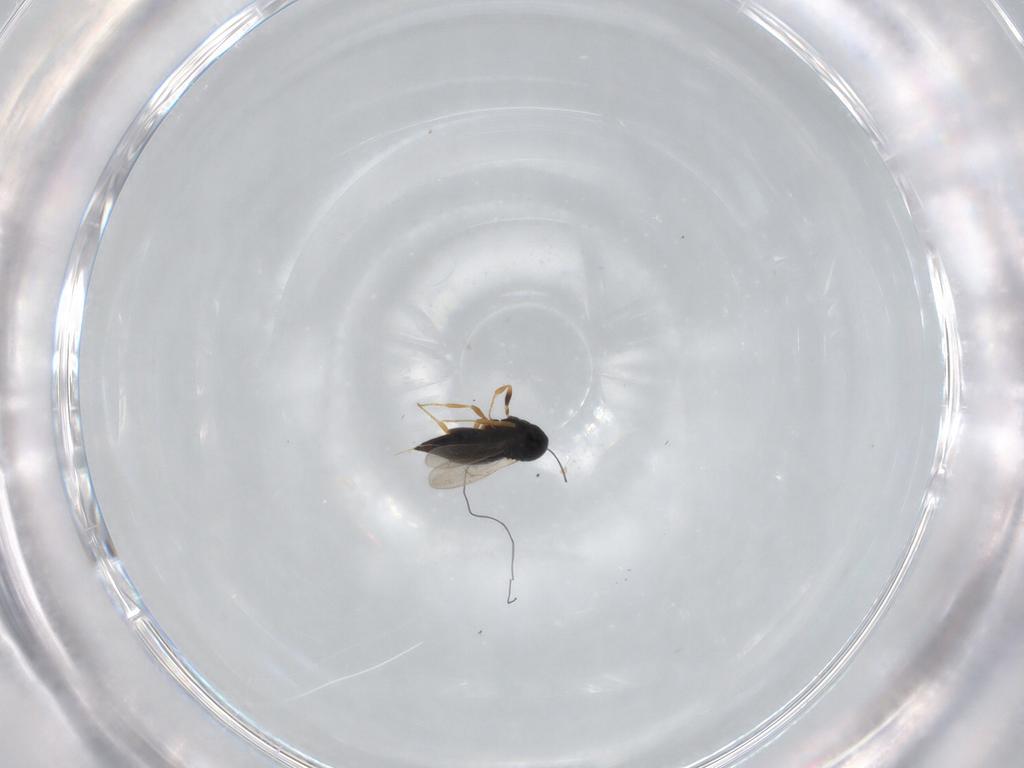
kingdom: Animalia
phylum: Arthropoda
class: Insecta
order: Hymenoptera
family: Scelionidae
